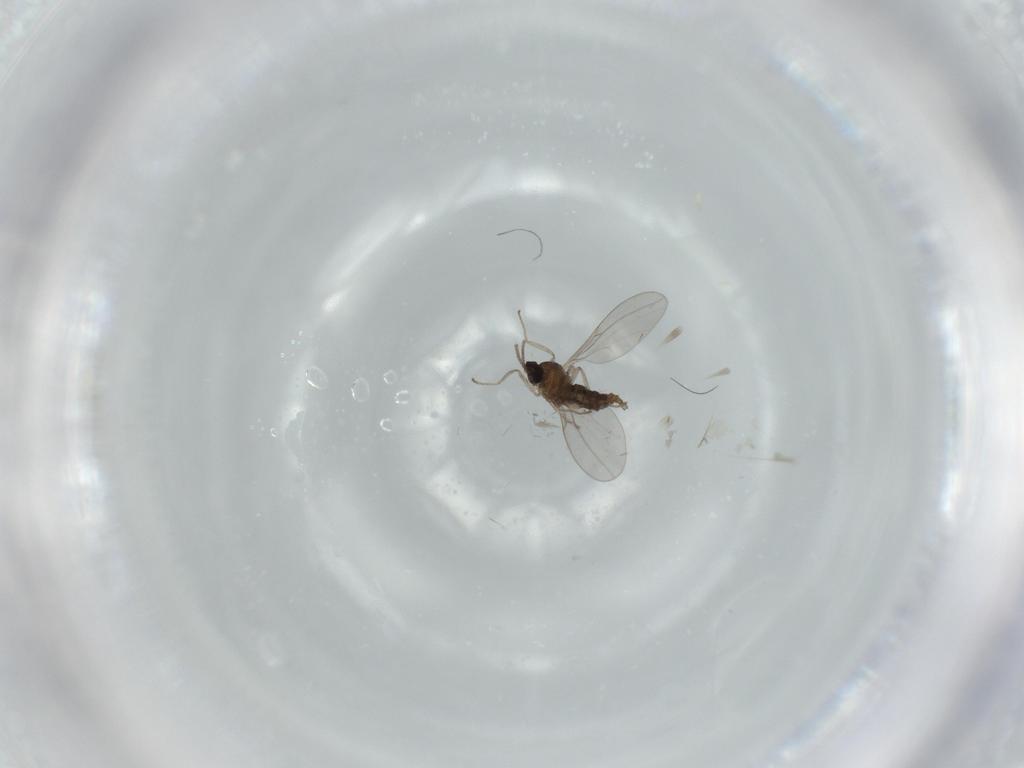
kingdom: Animalia
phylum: Arthropoda
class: Insecta
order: Diptera
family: Cecidomyiidae
